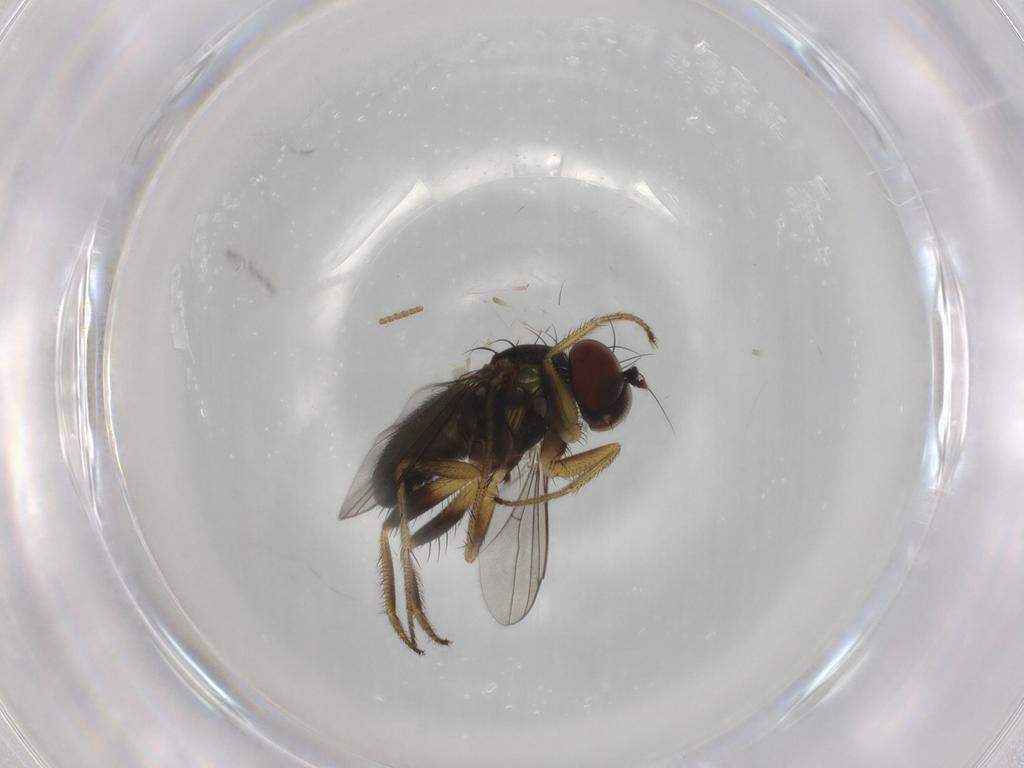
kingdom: Animalia
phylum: Arthropoda
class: Insecta
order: Diptera
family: Dolichopodidae
